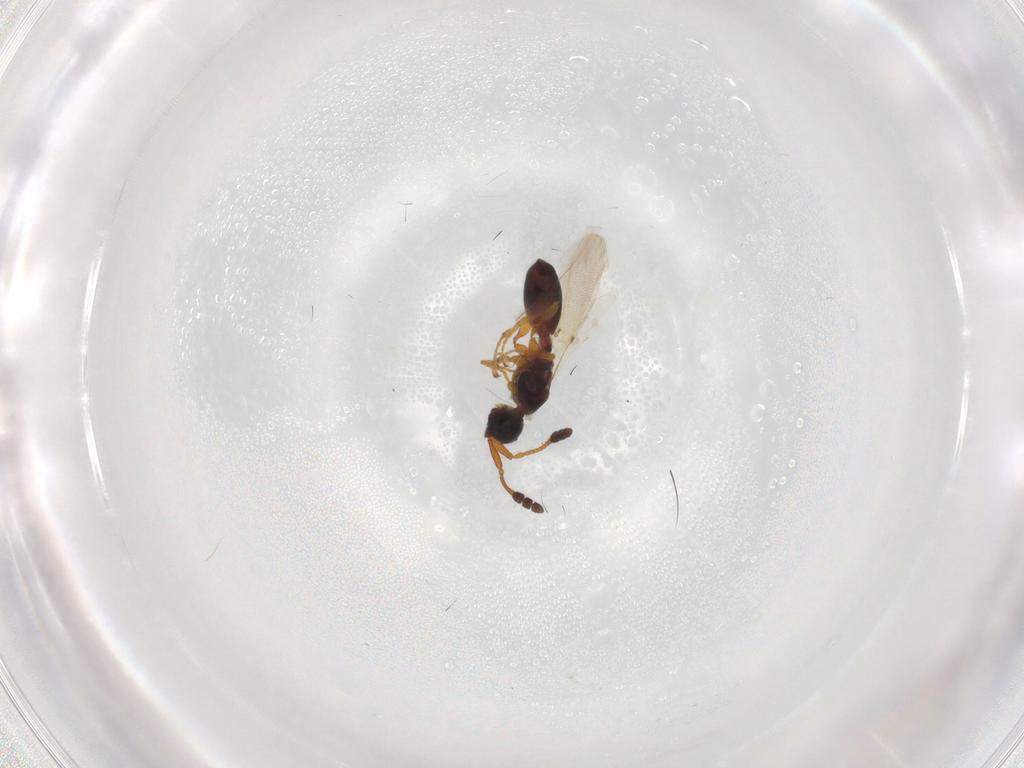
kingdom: Animalia
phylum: Arthropoda
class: Insecta
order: Hymenoptera
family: Diapriidae
